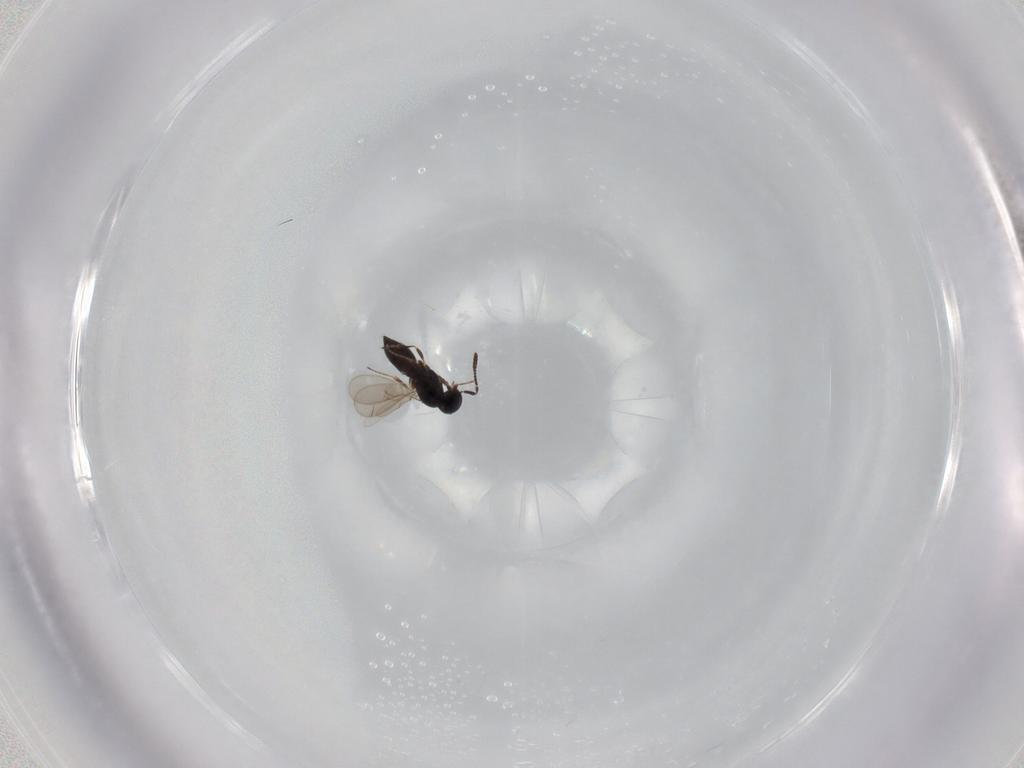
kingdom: Animalia
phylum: Arthropoda
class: Insecta
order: Hymenoptera
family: Scelionidae
